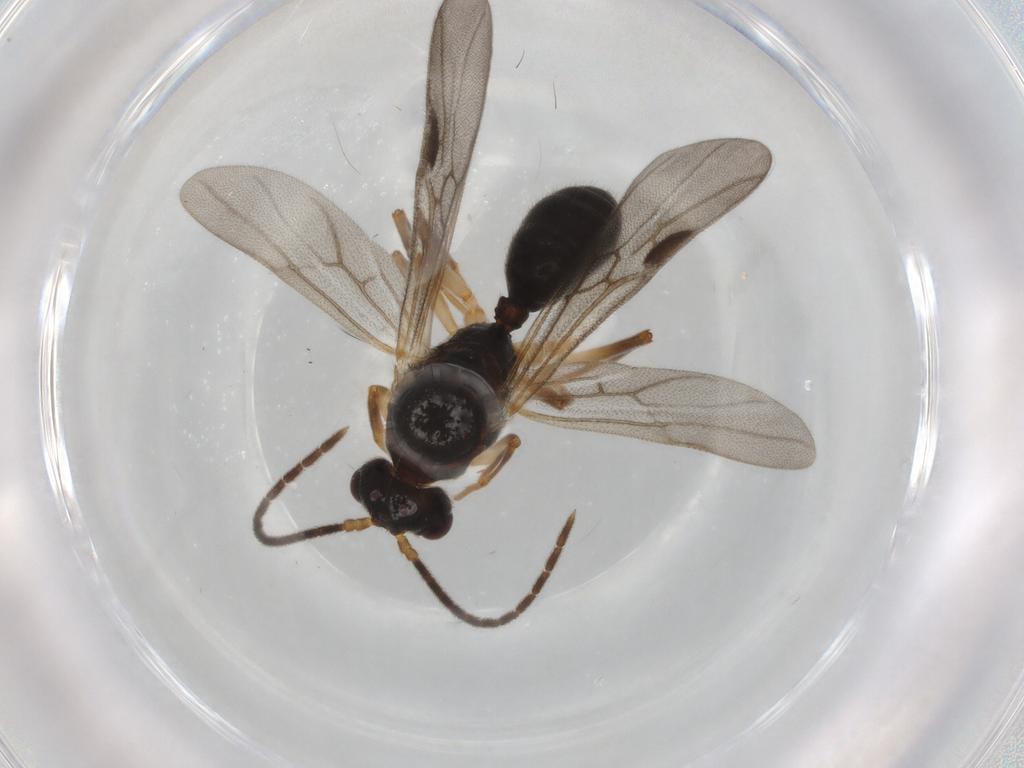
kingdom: Animalia
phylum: Arthropoda
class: Insecta
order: Hymenoptera
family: Formicidae
